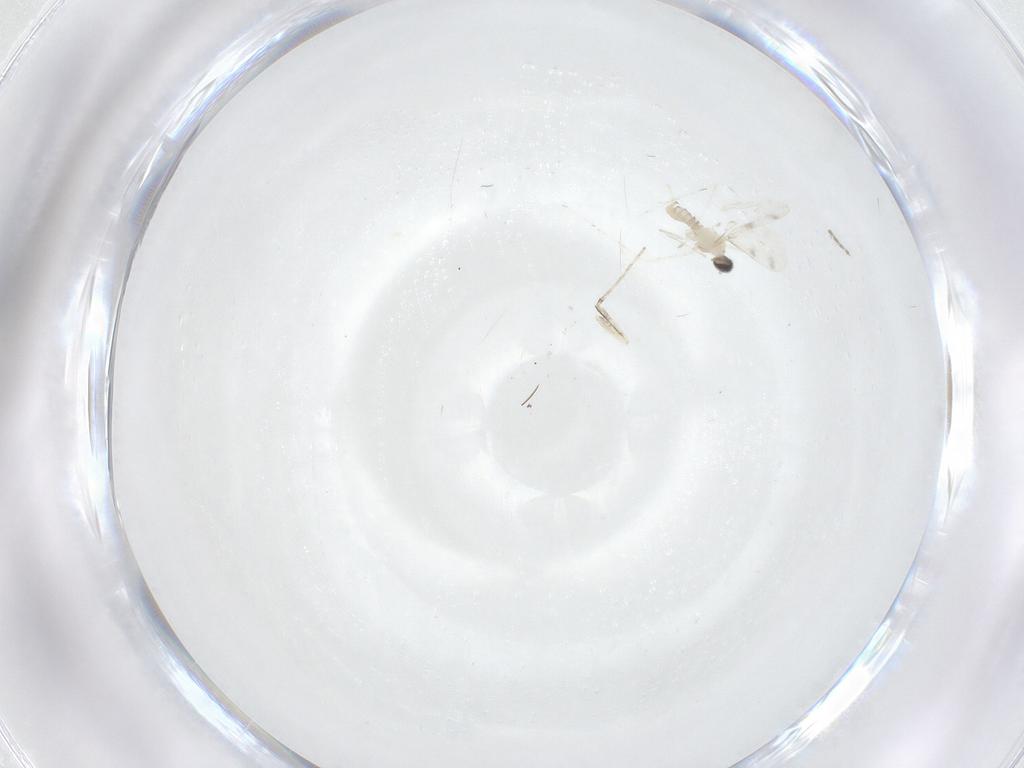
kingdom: Animalia
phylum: Arthropoda
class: Insecta
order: Diptera
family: Cecidomyiidae
